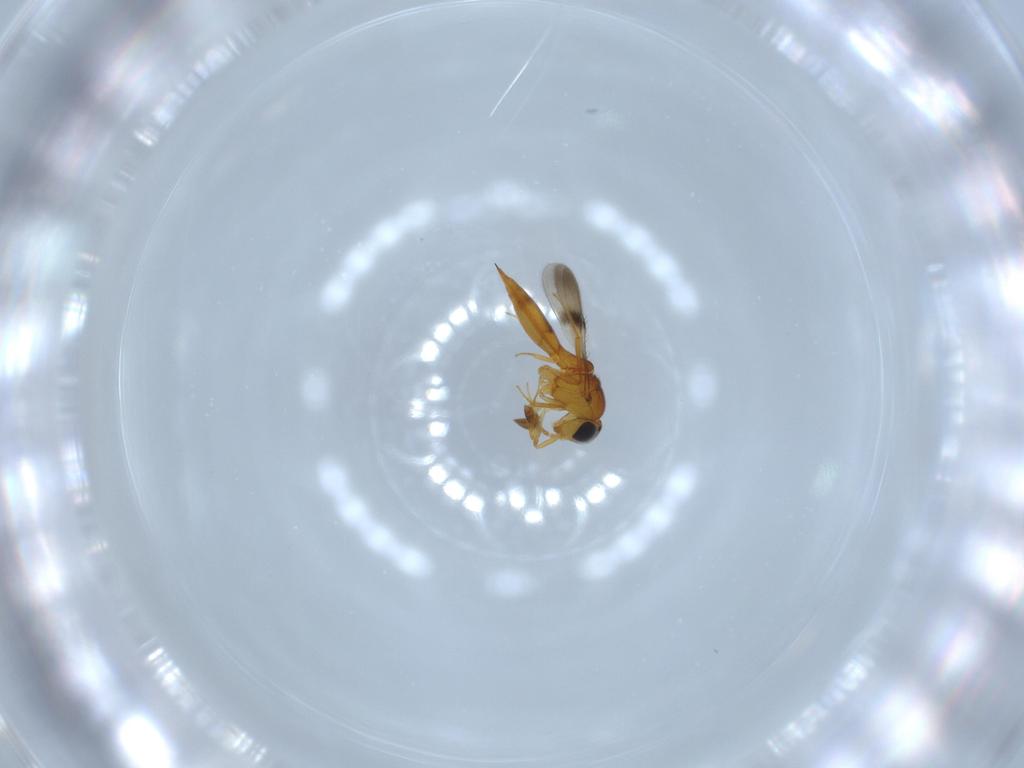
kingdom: Animalia
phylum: Arthropoda
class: Insecta
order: Hymenoptera
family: Scelionidae
